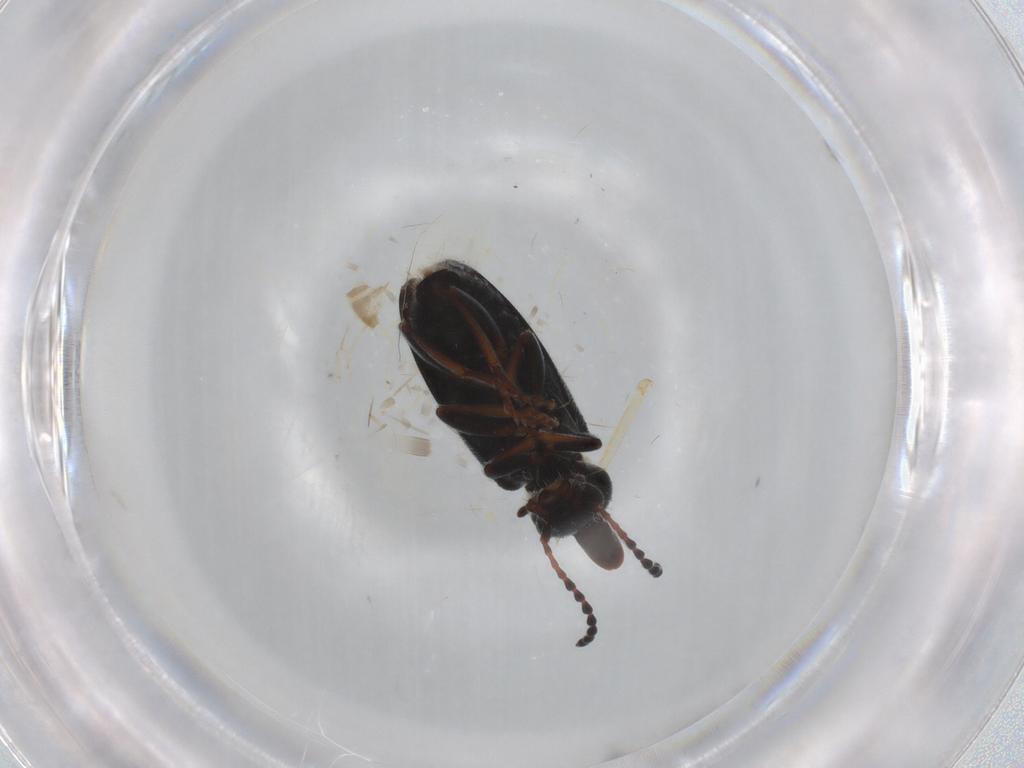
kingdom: Animalia
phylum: Arthropoda
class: Insecta
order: Coleoptera
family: Anthicidae
